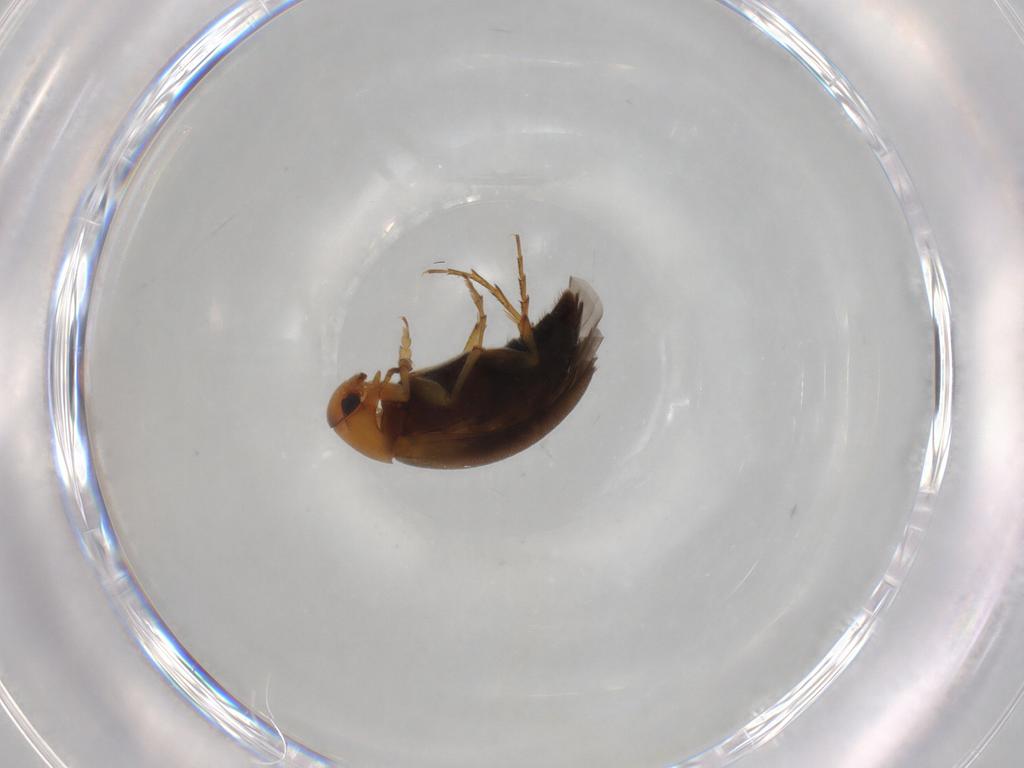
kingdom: Animalia
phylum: Arthropoda
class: Insecta
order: Coleoptera
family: Scraptiidae
